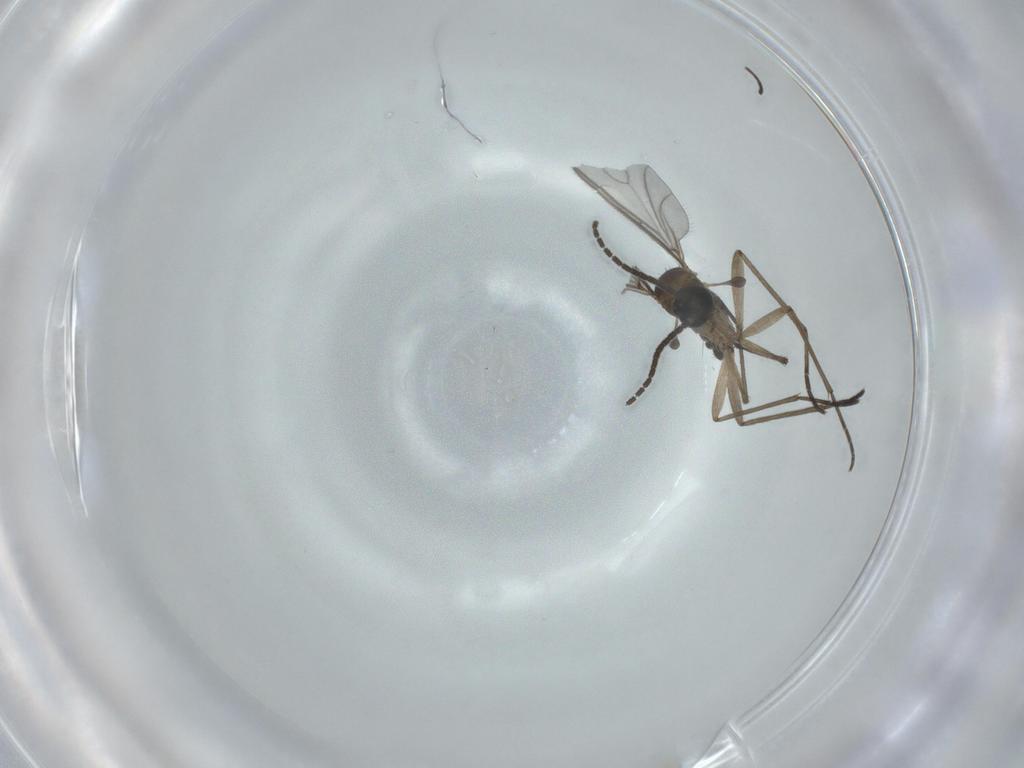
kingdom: Animalia
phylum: Arthropoda
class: Insecta
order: Diptera
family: Sciaridae
